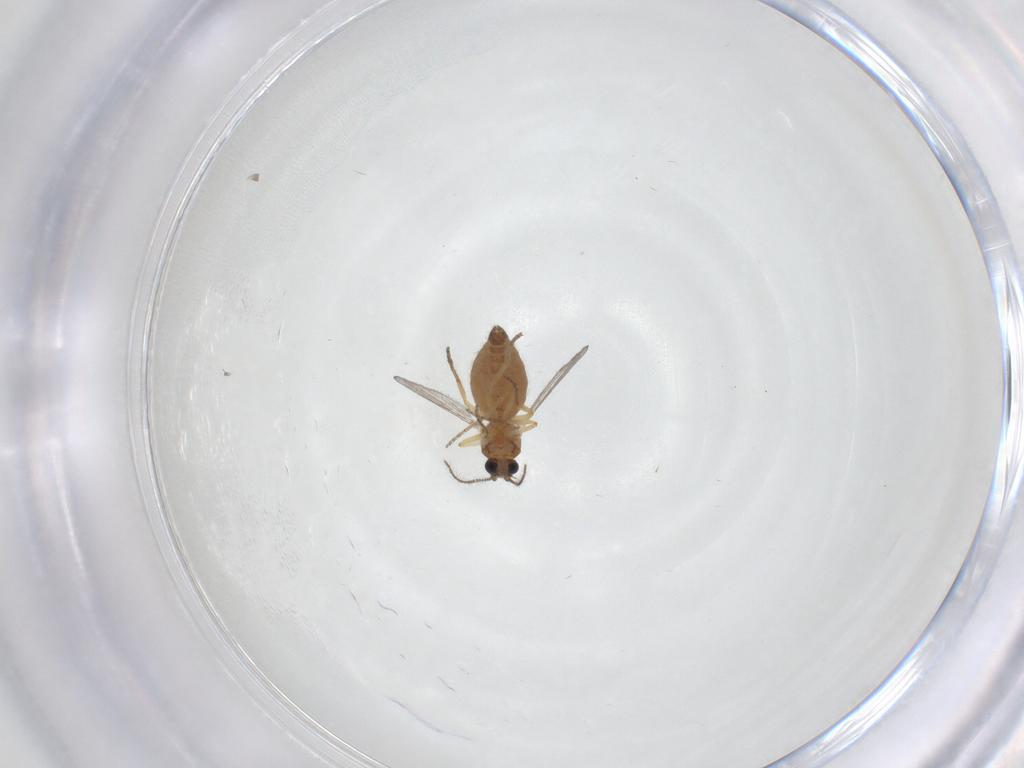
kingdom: Animalia
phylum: Arthropoda
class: Insecta
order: Diptera
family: Ceratopogonidae
